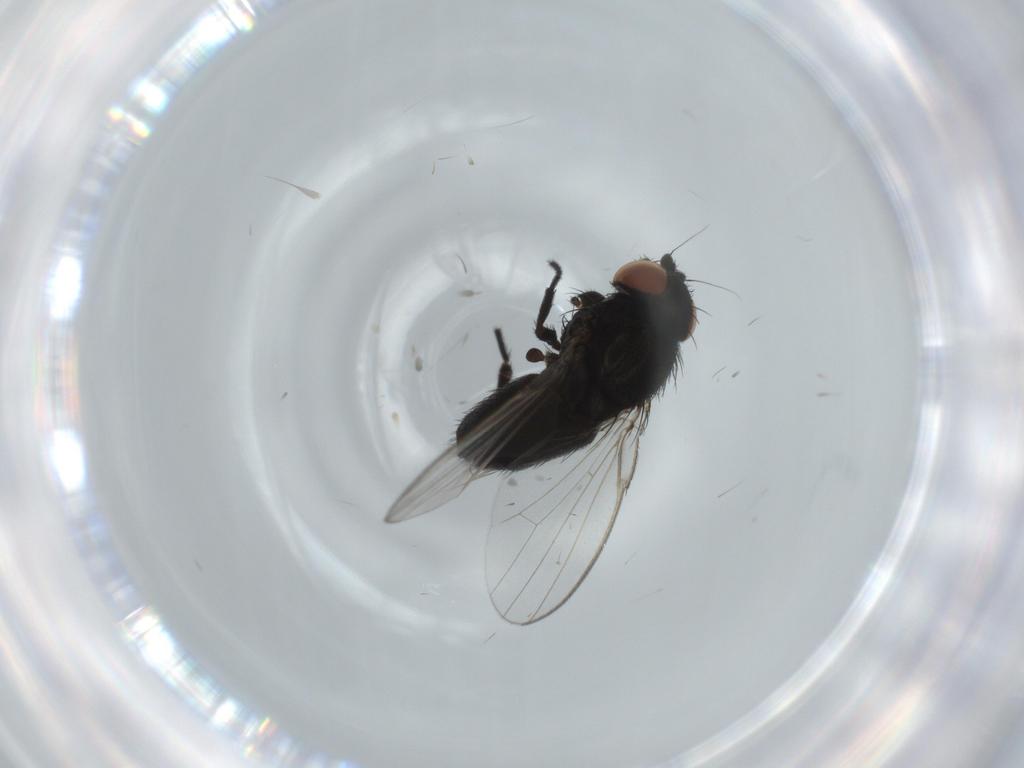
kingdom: Animalia
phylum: Arthropoda
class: Insecta
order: Diptera
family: Milichiidae
